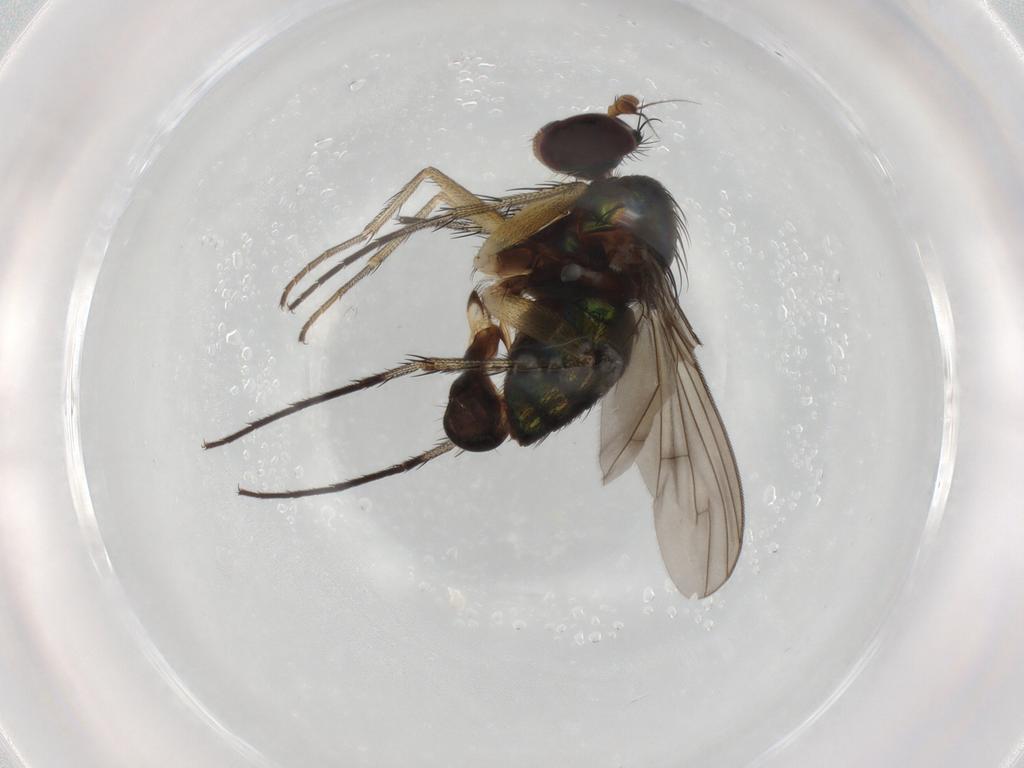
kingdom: Animalia
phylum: Arthropoda
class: Insecta
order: Diptera
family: Dolichopodidae
